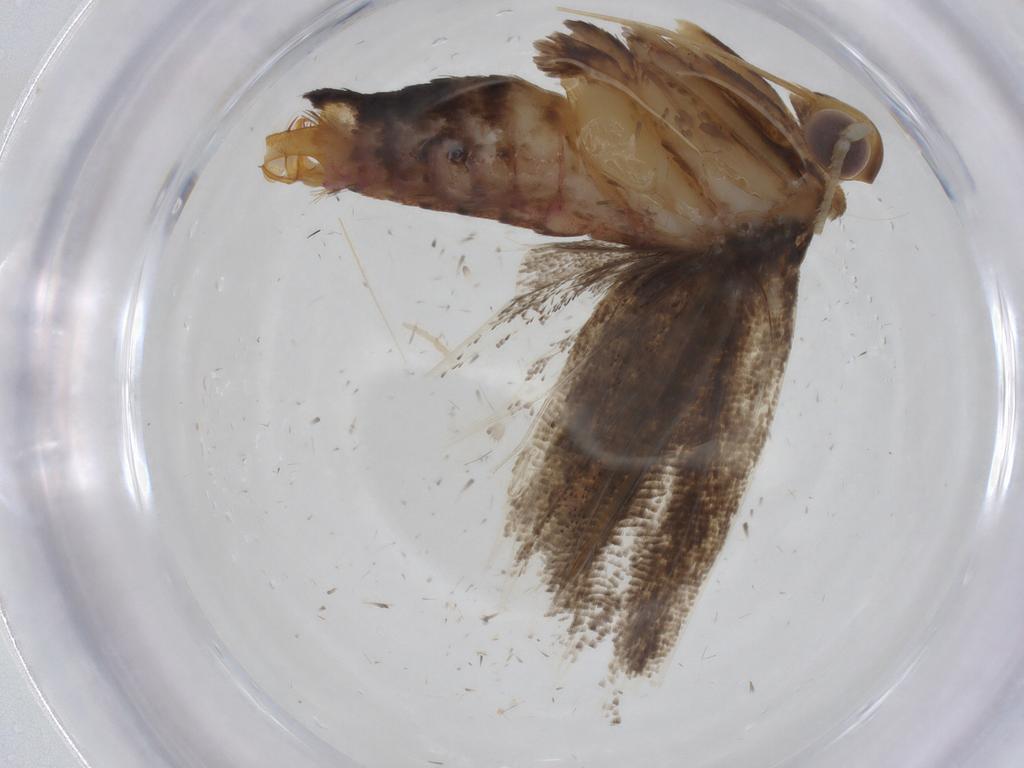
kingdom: Animalia
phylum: Arthropoda
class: Insecta
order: Lepidoptera
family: Lecithoceridae
